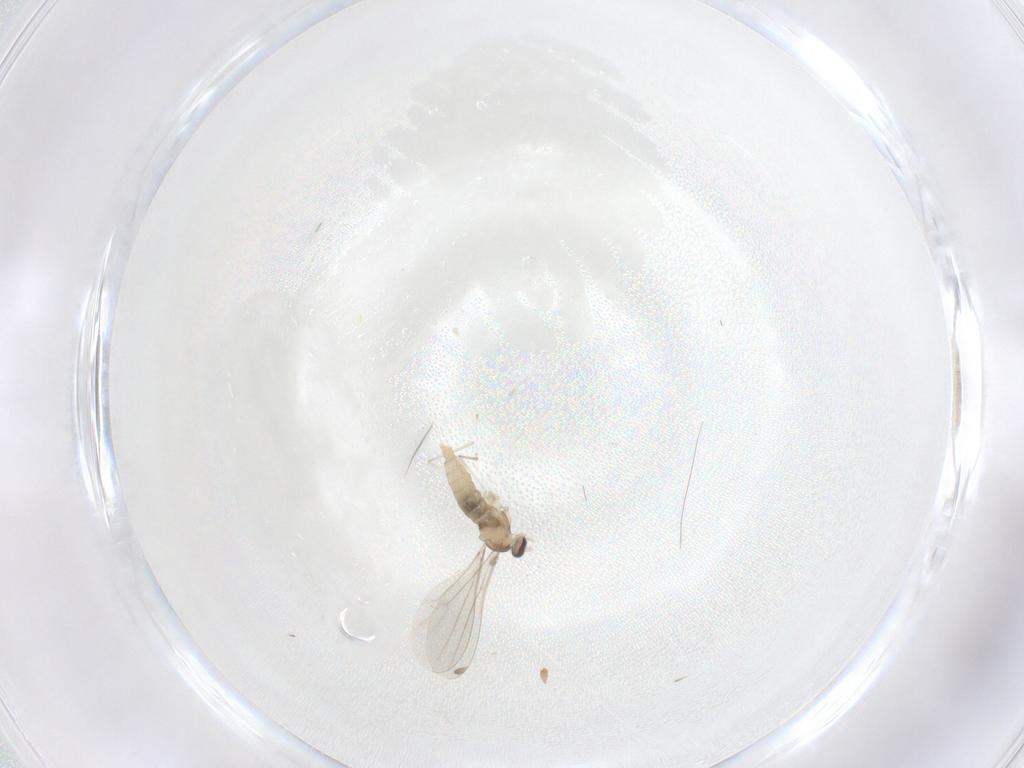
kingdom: Animalia
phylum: Arthropoda
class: Insecta
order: Diptera
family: Cecidomyiidae
